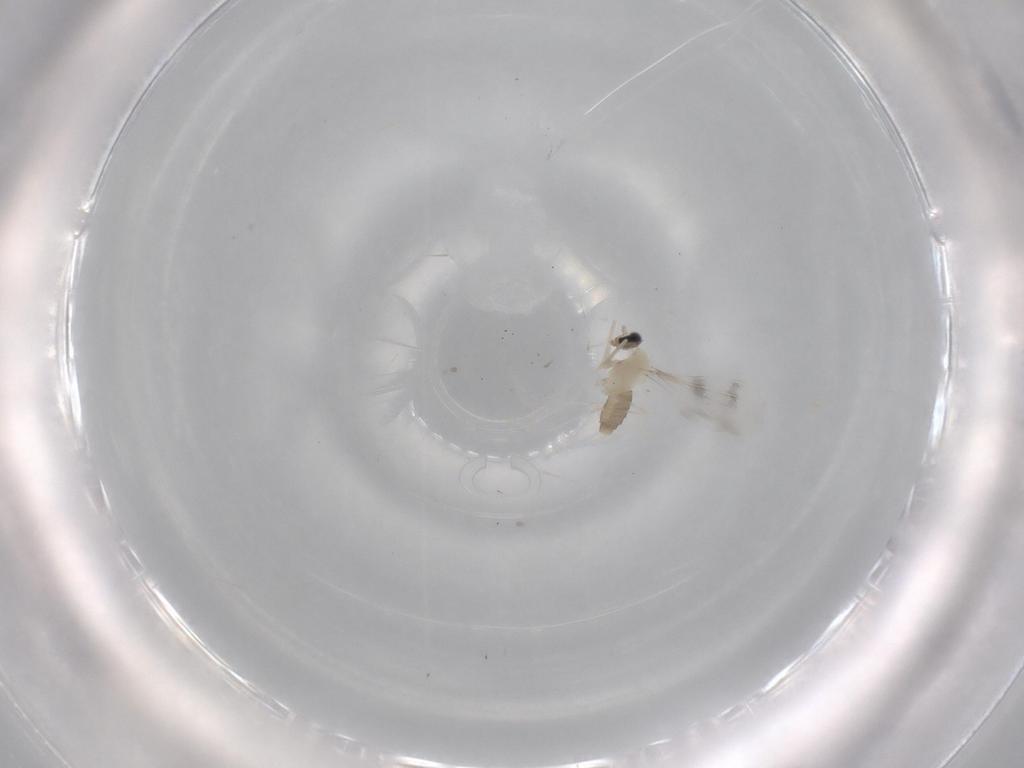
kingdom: Animalia
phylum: Arthropoda
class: Insecta
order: Diptera
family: Cecidomyiidae
